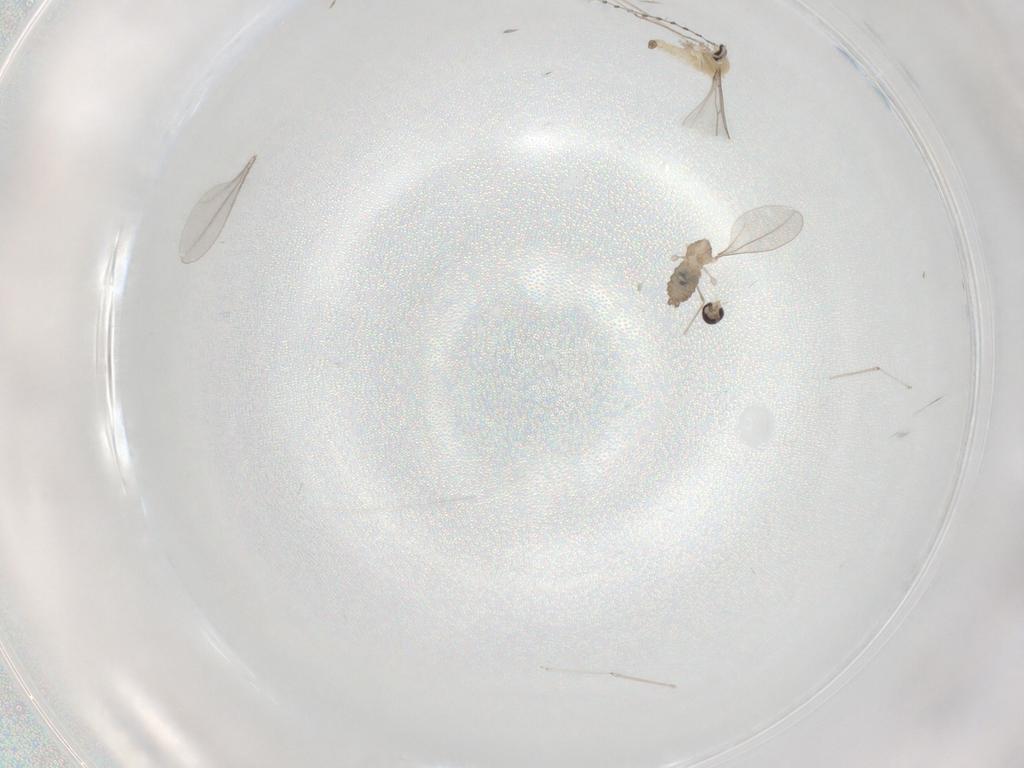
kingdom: Animalia
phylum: Arthropoda
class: Insecta
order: Diptera
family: Cecidomyiidae
